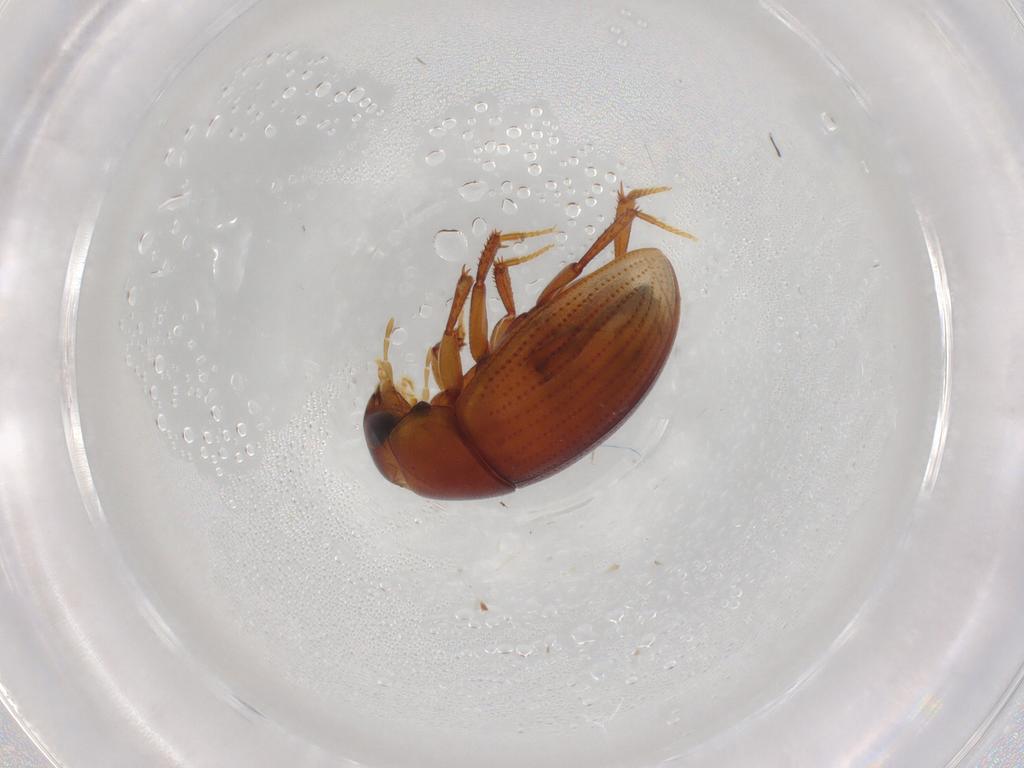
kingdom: Animalia
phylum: Arthropoda
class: Insecta
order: Coleoptera
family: Hydrophilidae
